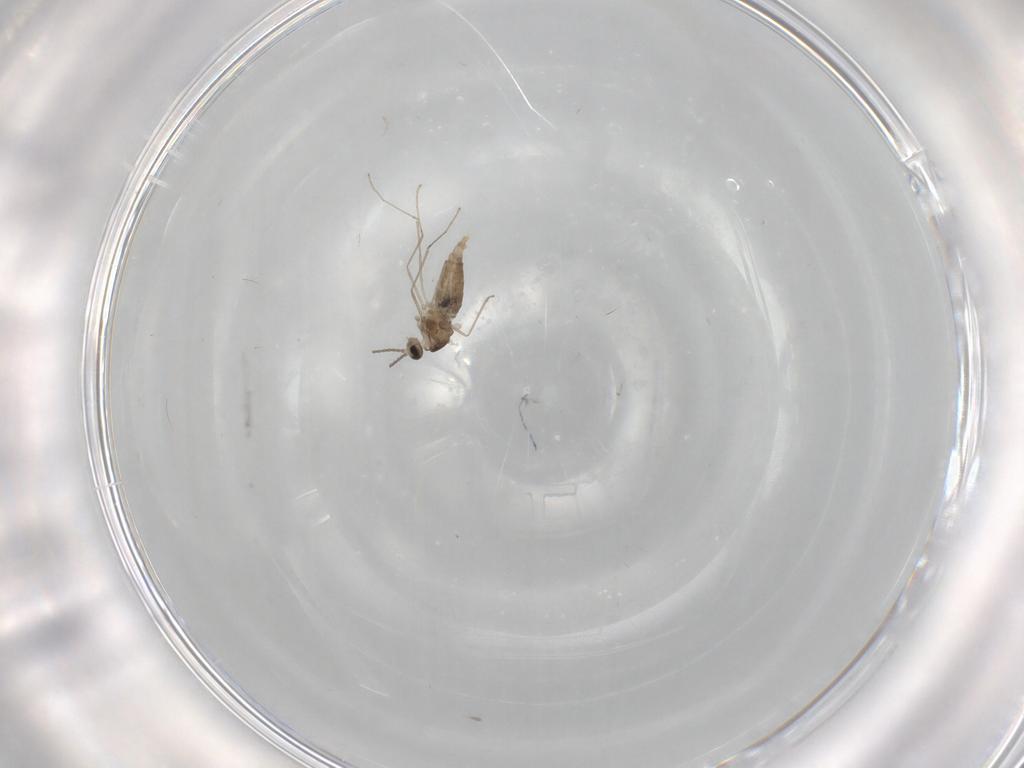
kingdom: Animalia
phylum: Arthropoda
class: Insecta
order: Diptera
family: Ceratopogonidae
